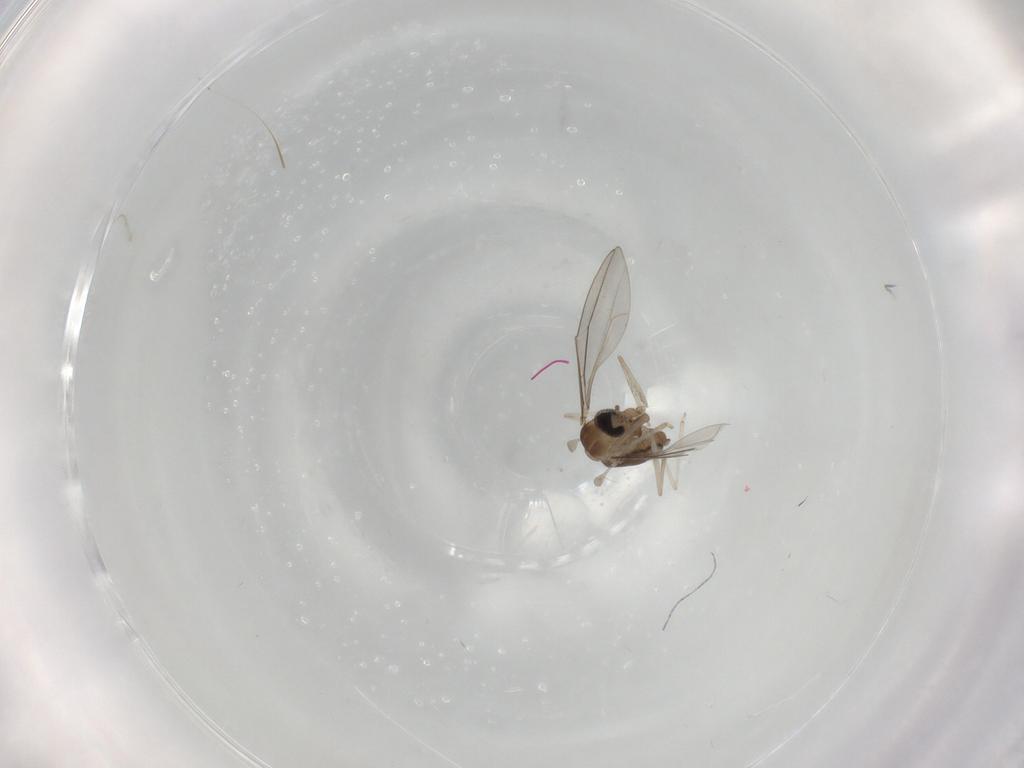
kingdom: Animalia
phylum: Arthropoda
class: Insecta
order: Diptera
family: Cecidomyiidae
